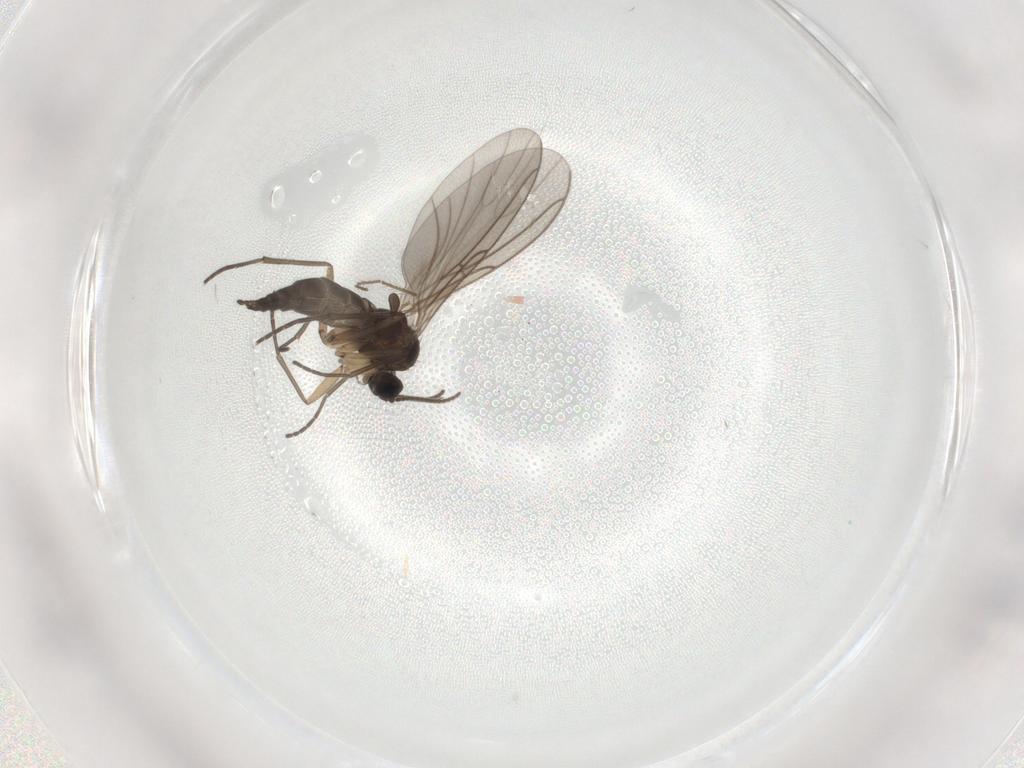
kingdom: Animalia
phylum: Arthropoda
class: Insecta
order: Diptera
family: Sciaridae
